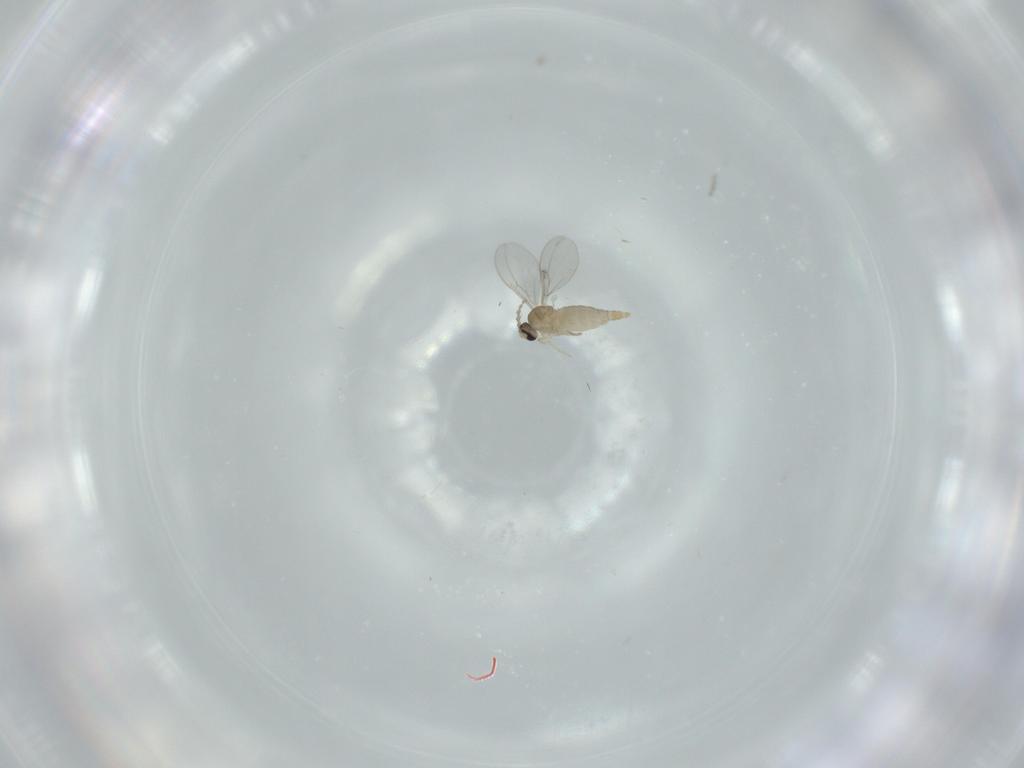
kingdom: Animalia
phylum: Arthropoda
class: Insecta
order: Diptera
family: Cecidomyiidae
